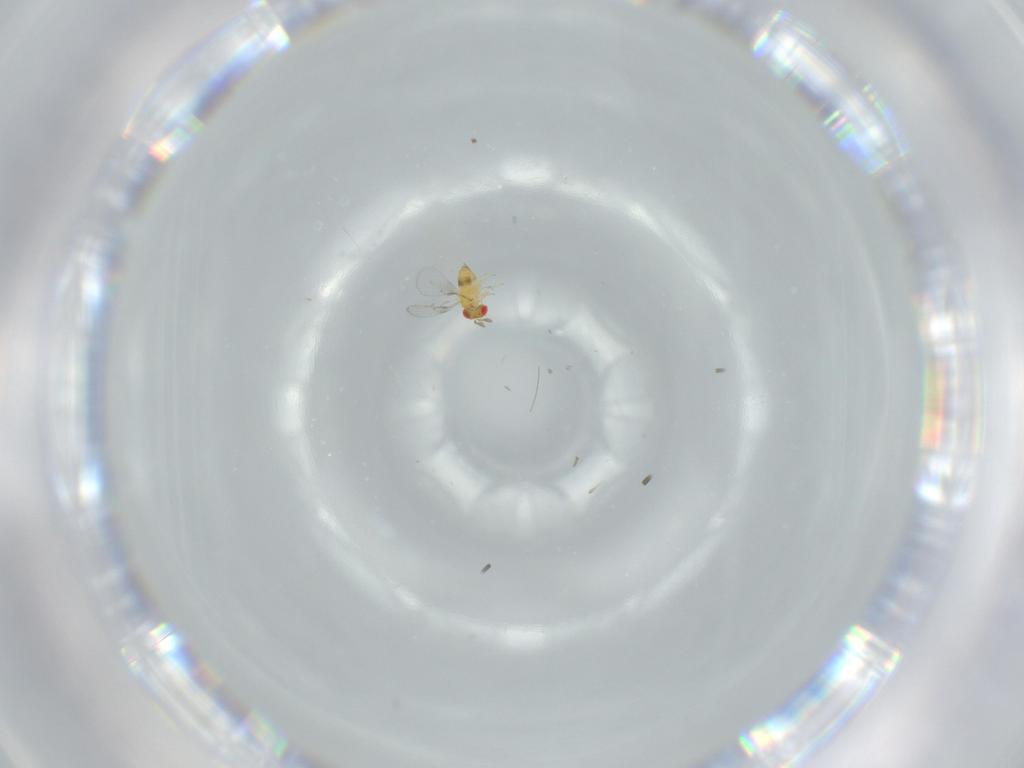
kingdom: Animalia
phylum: Arthropoda
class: Insecta
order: Hymenoptera
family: Trichogrammatidae
